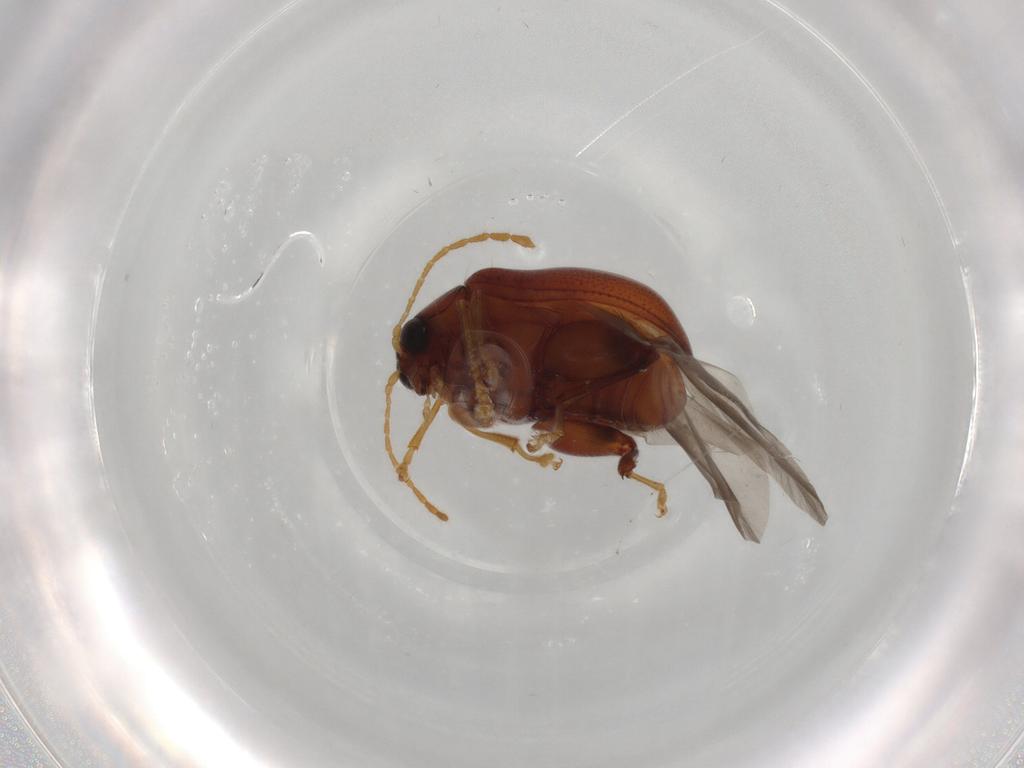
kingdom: Animalia
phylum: Arthropoda
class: Insecta
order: Coleoptera
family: Chrysomelidae
